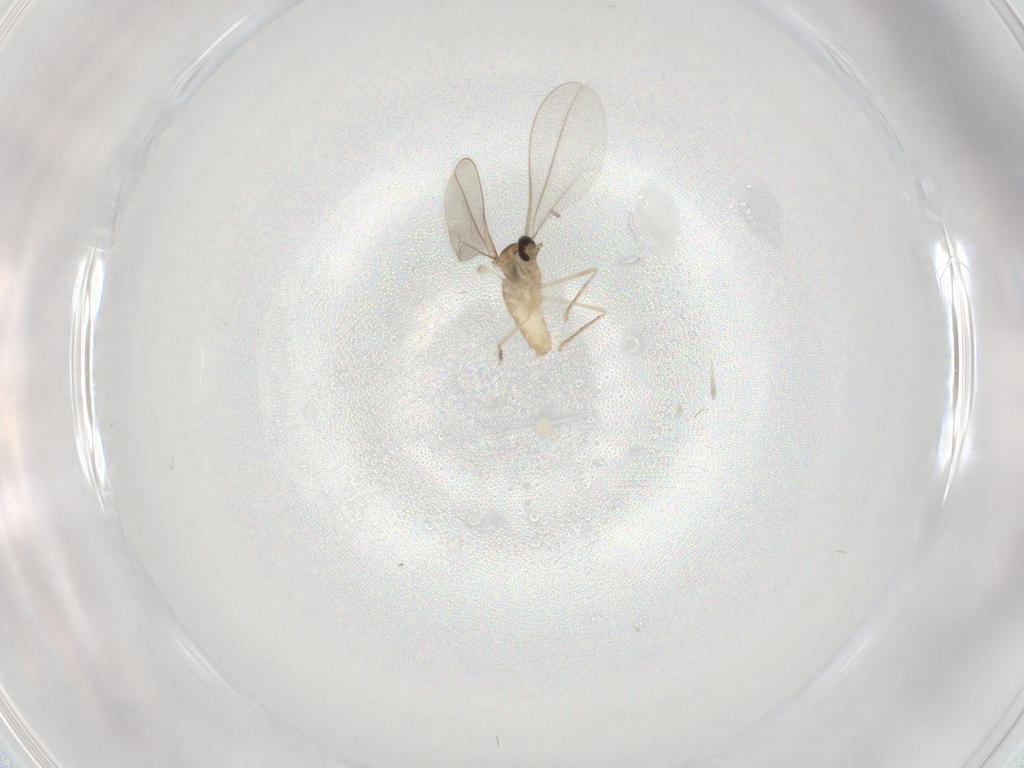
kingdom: Animalia
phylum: Arthropoda
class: Insecta
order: Diptera
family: Cecidomyiidae
